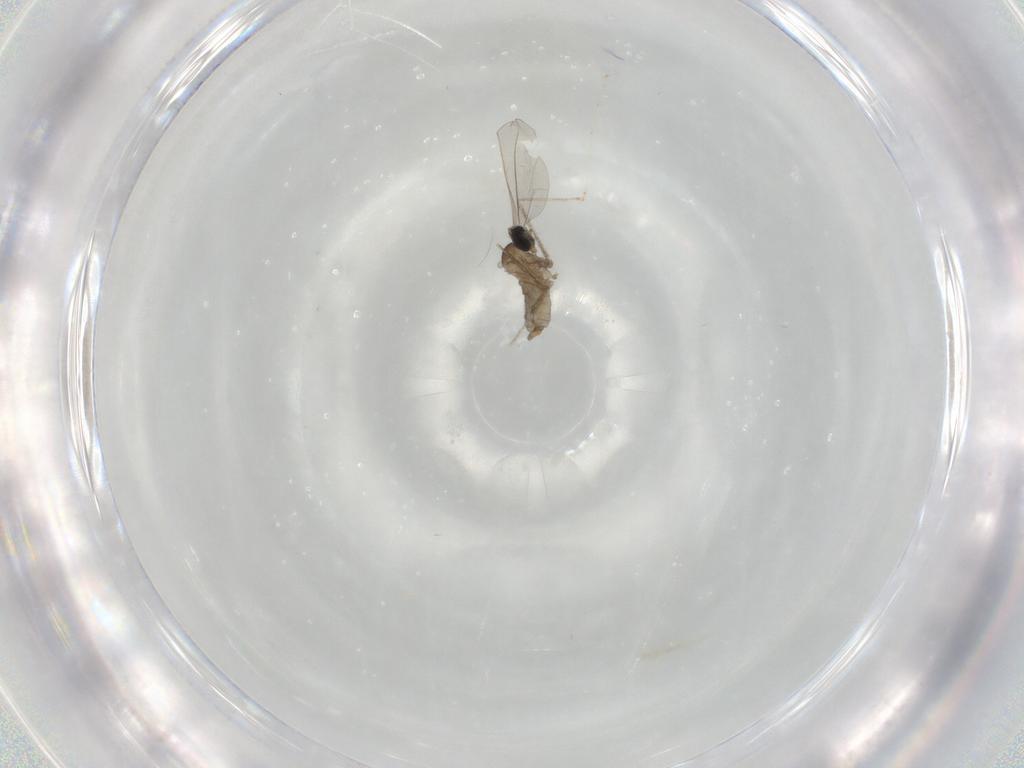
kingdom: Animalia
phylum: Arthropoda
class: Insecta
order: Diptera
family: Cecidomyiidae
